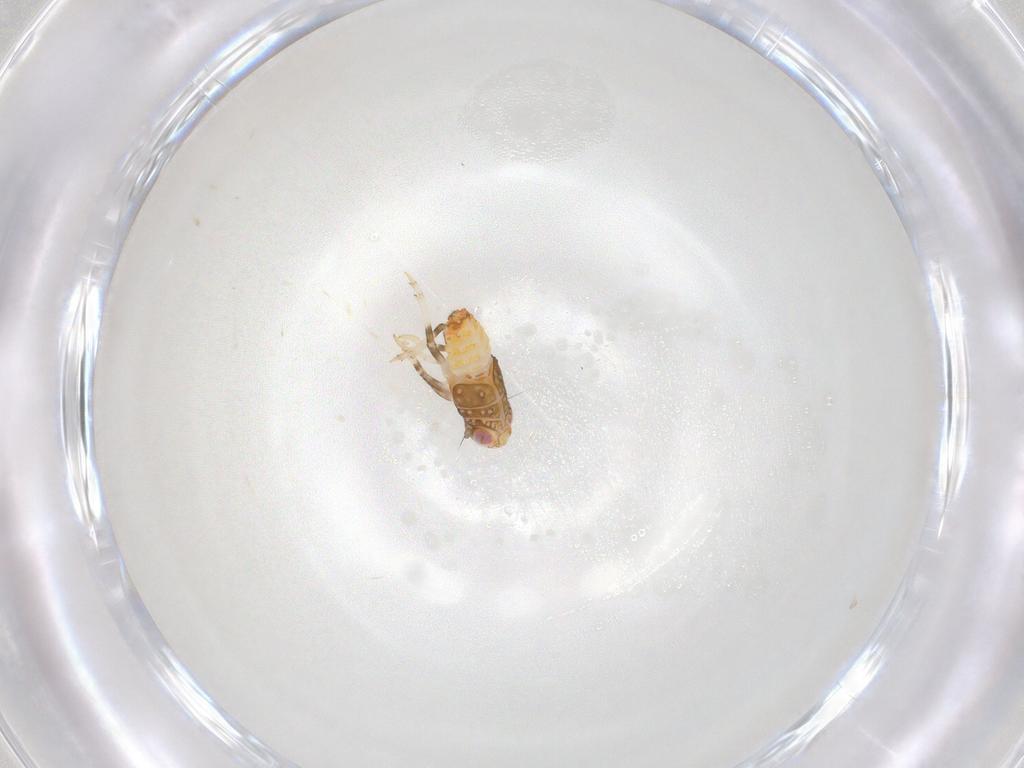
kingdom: Animalia
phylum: Arthropoda
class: Insecta
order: Hemiptera
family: Issidae
